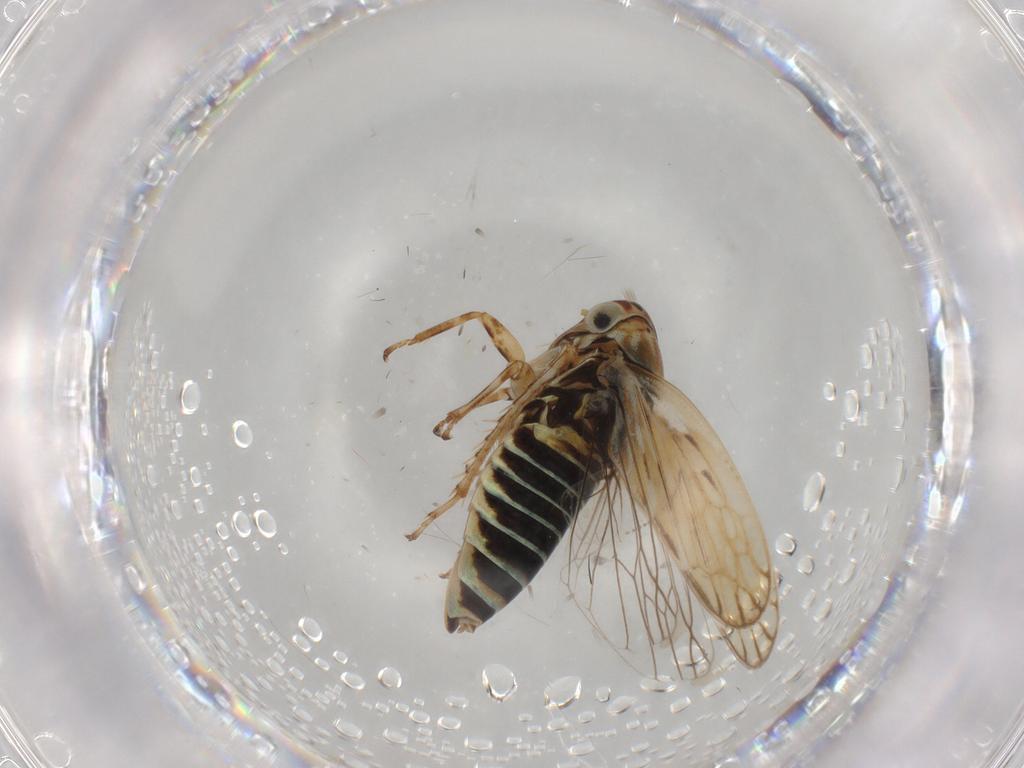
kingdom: Animalia
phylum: Arthropoda
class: Insecta
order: Hemiptera
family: Cicadellidae
